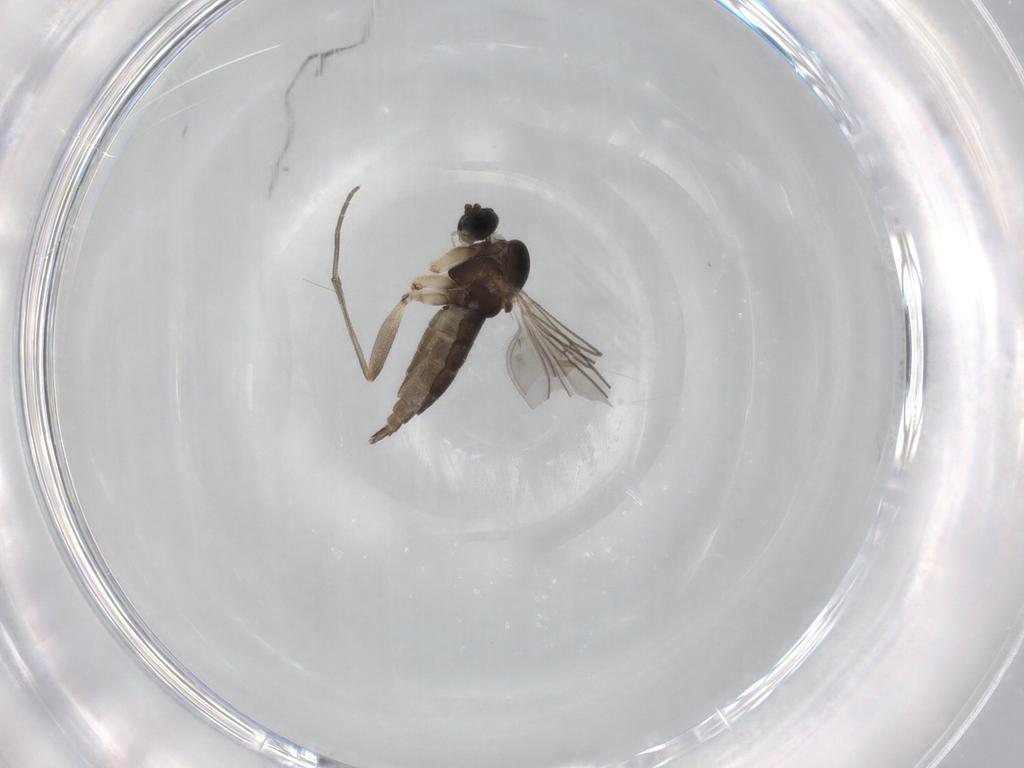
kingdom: Animalia
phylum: Arthropoda
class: Insecta
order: Diptera
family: Sciaridae
